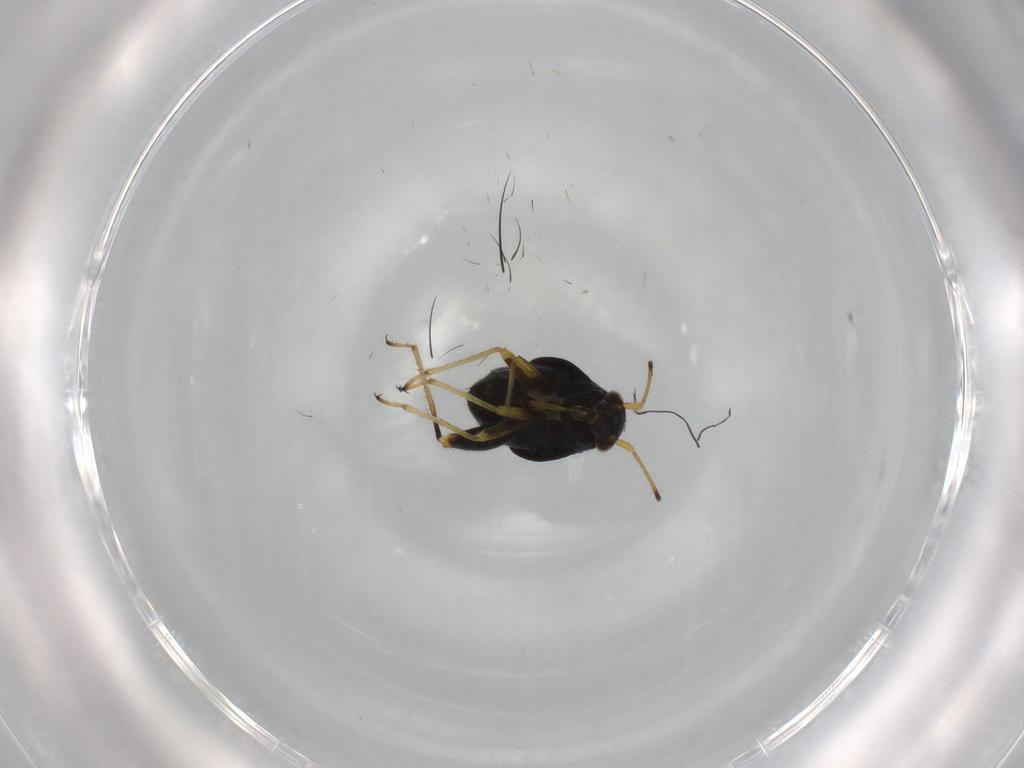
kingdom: Animalia
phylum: Arthropoda
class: Insecta
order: Hemiptera
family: Miridae
